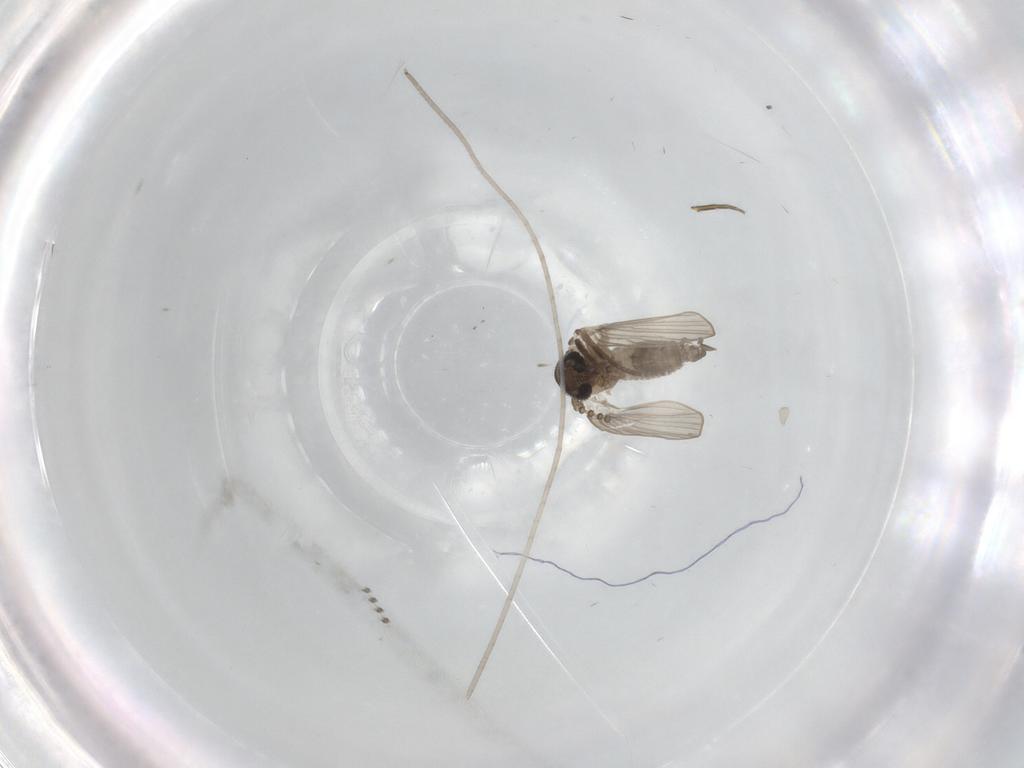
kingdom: Animalia
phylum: Arthropoda
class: Insecta
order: Diptera
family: Psychodidae
